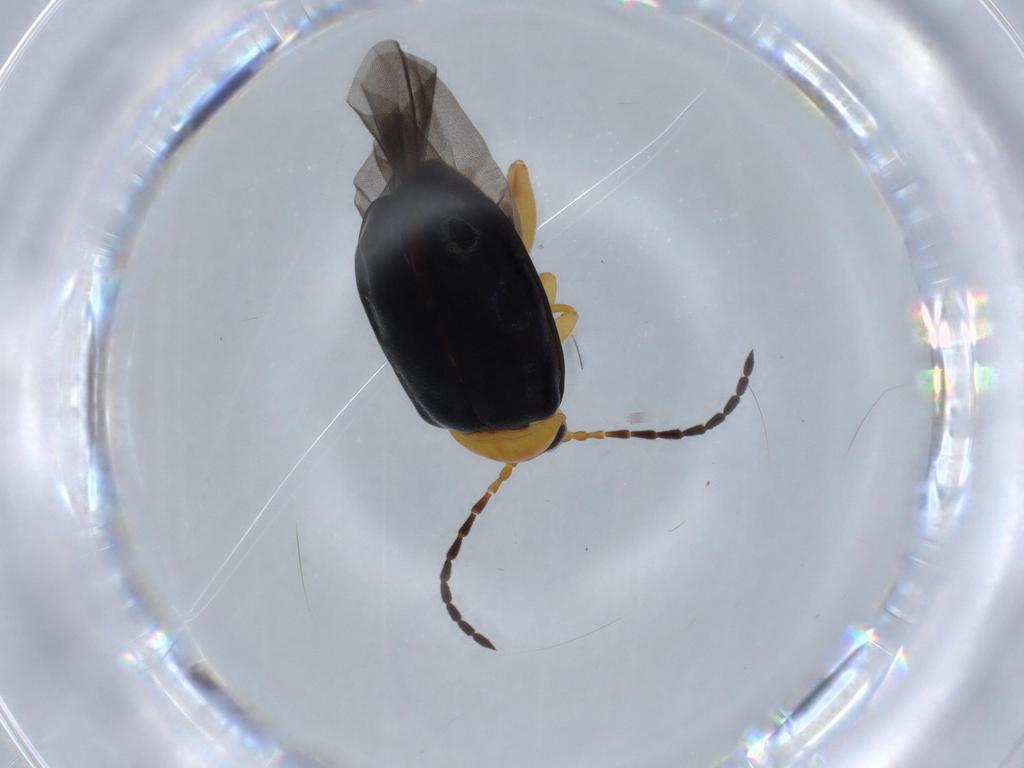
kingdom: Animalia
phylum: Arthropoda
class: Insecta
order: Coleoptera
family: Chrysomelidae
